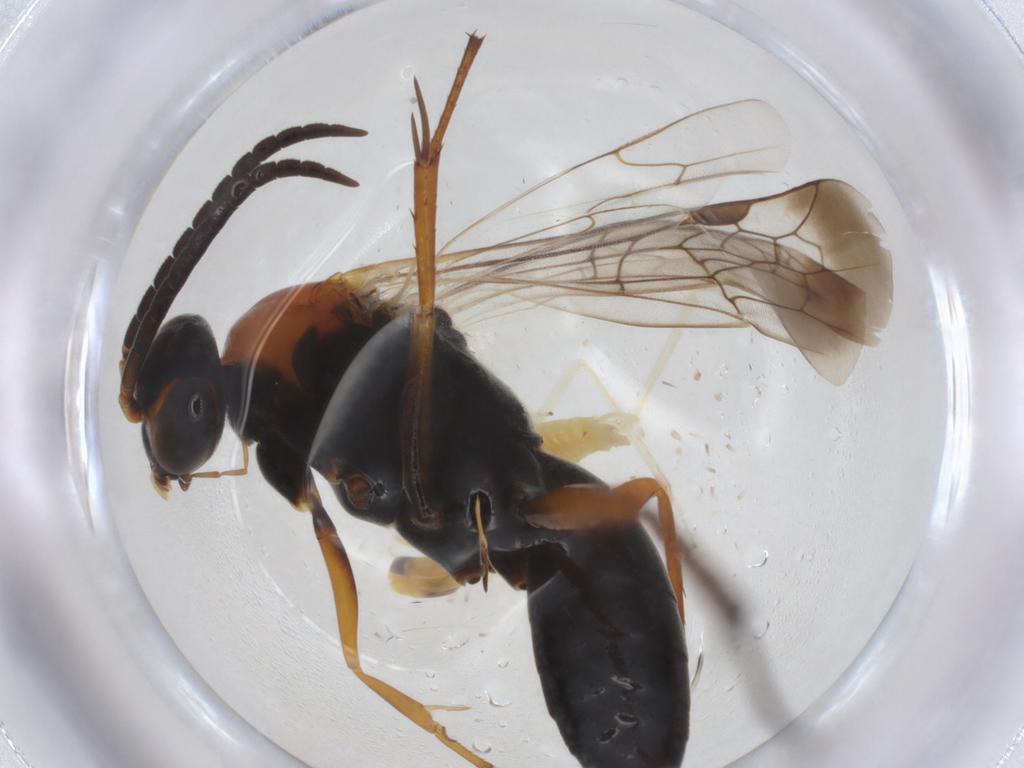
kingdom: Animalia
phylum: Arthropoda
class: Insecta
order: Hymenoptera
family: Pompilidae
